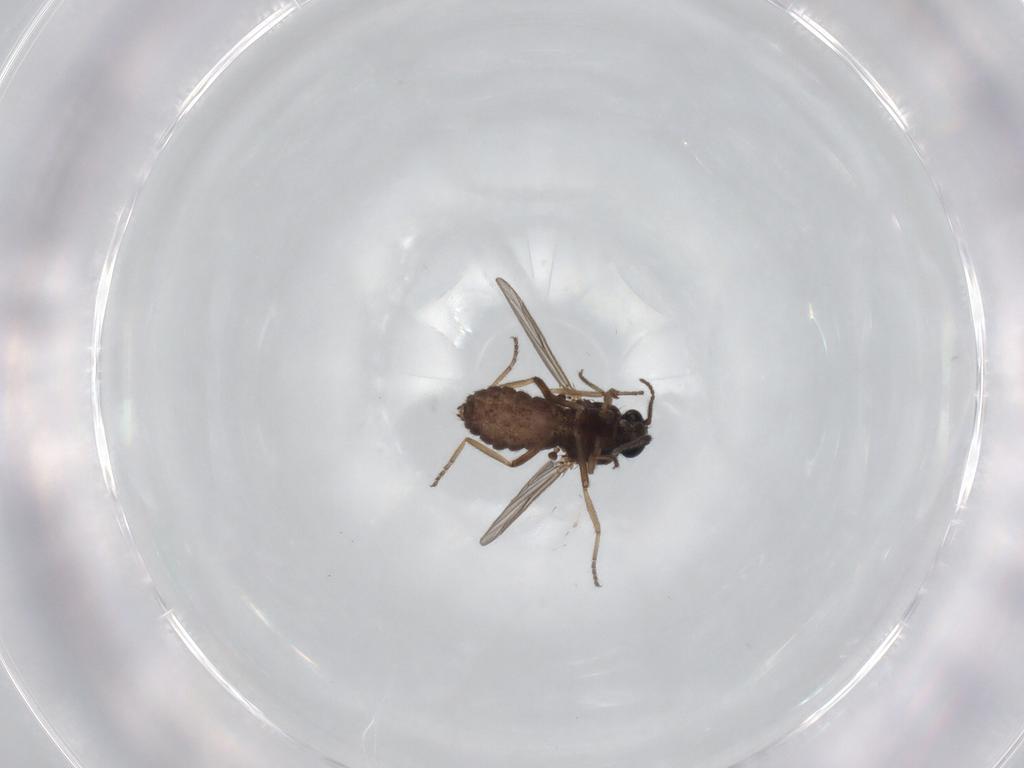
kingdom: Animalia
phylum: Arthropoda
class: Insecta
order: Diptera
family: Ceratopogonidae
